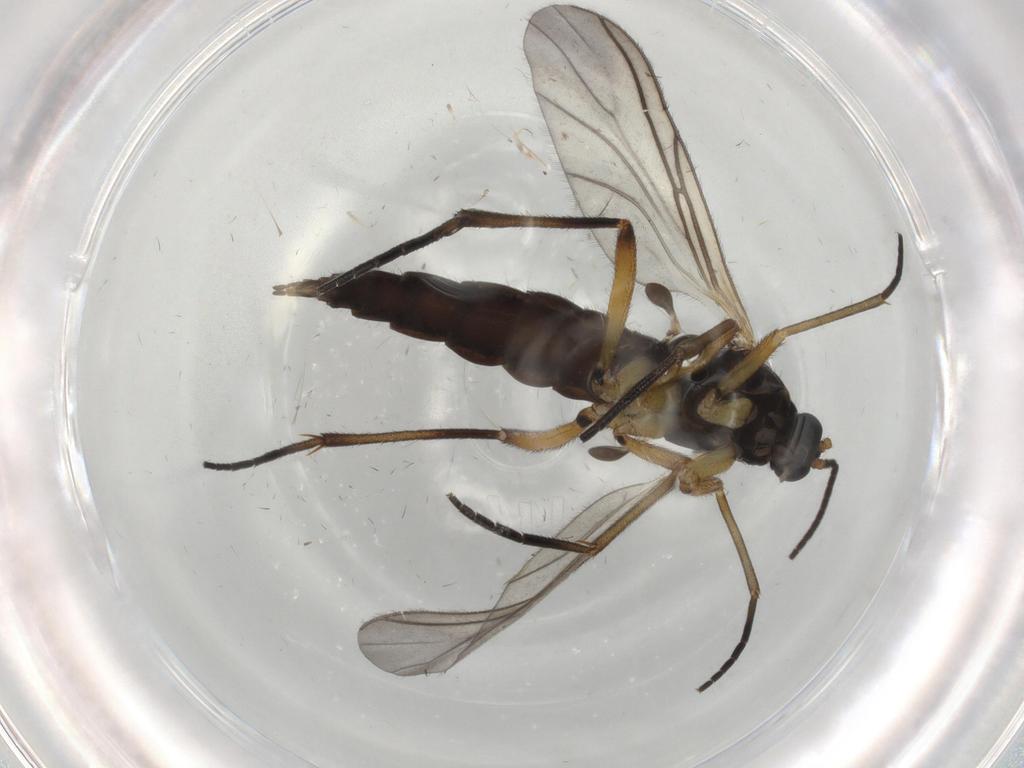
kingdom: Animalia
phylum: Arthropoda
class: Insecta
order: Diptera
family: Sciaridae
